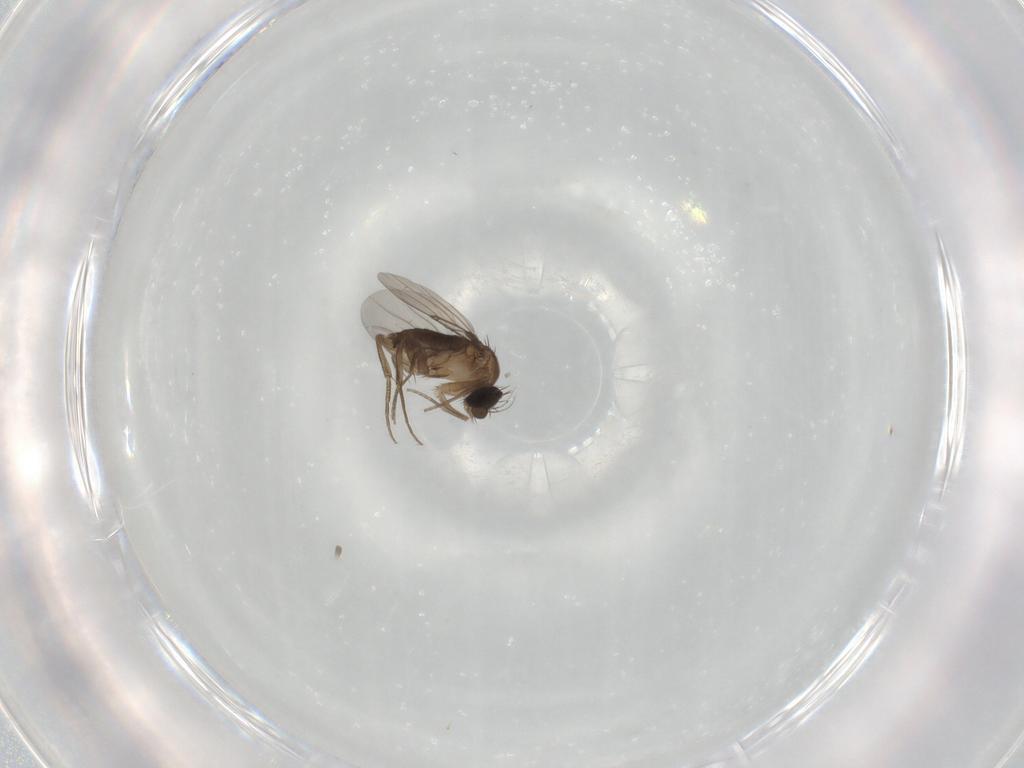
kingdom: Animalia
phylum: Arthropoda
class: Insecta
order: Diptera
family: Phoridae
